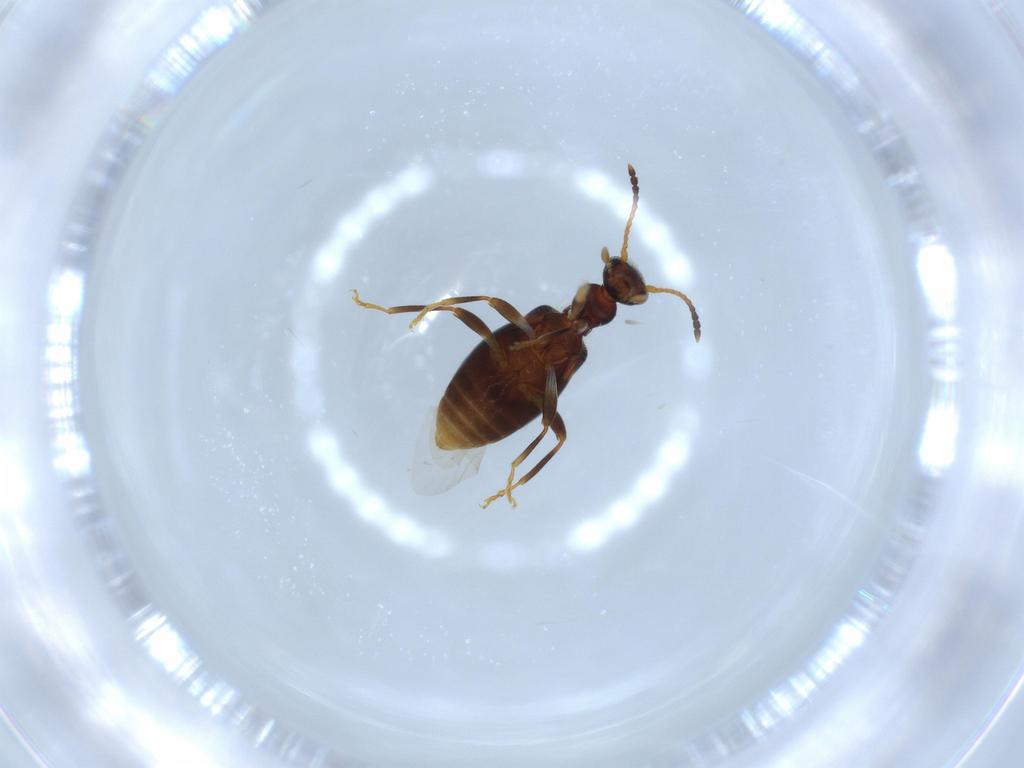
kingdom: Animalia
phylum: Arthropoda
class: Insecta
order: Coleoptera
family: Anthicidae
